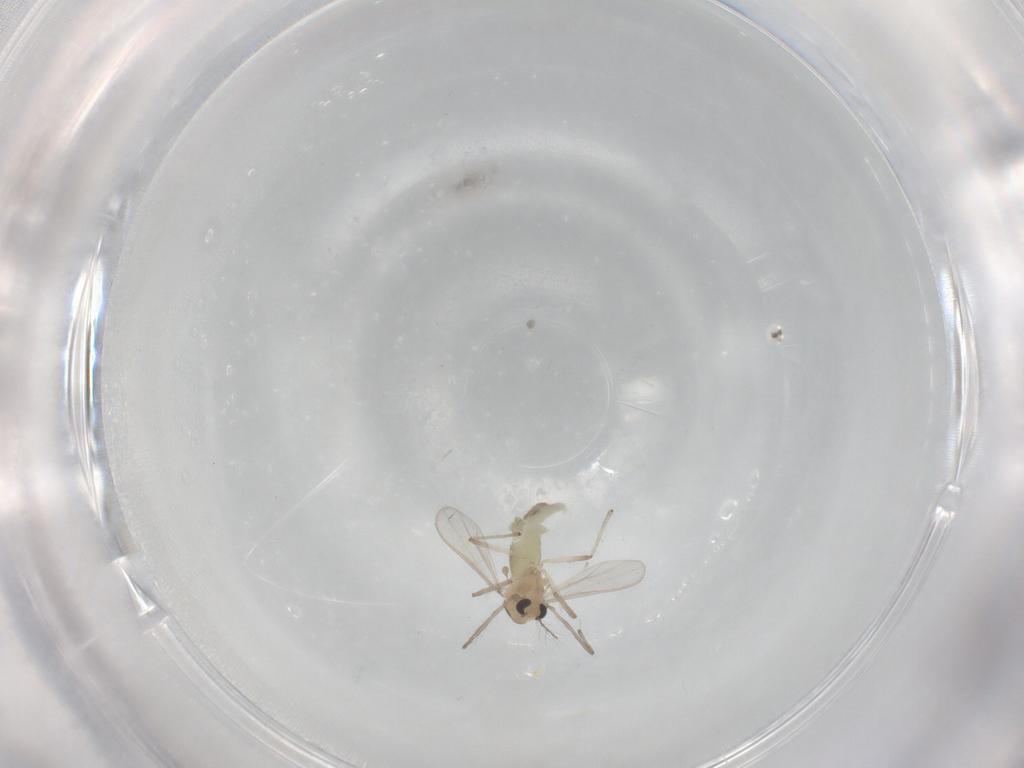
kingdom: Animalia
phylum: Arthropoda
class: Insecta
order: Diptera
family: Chironomidae
